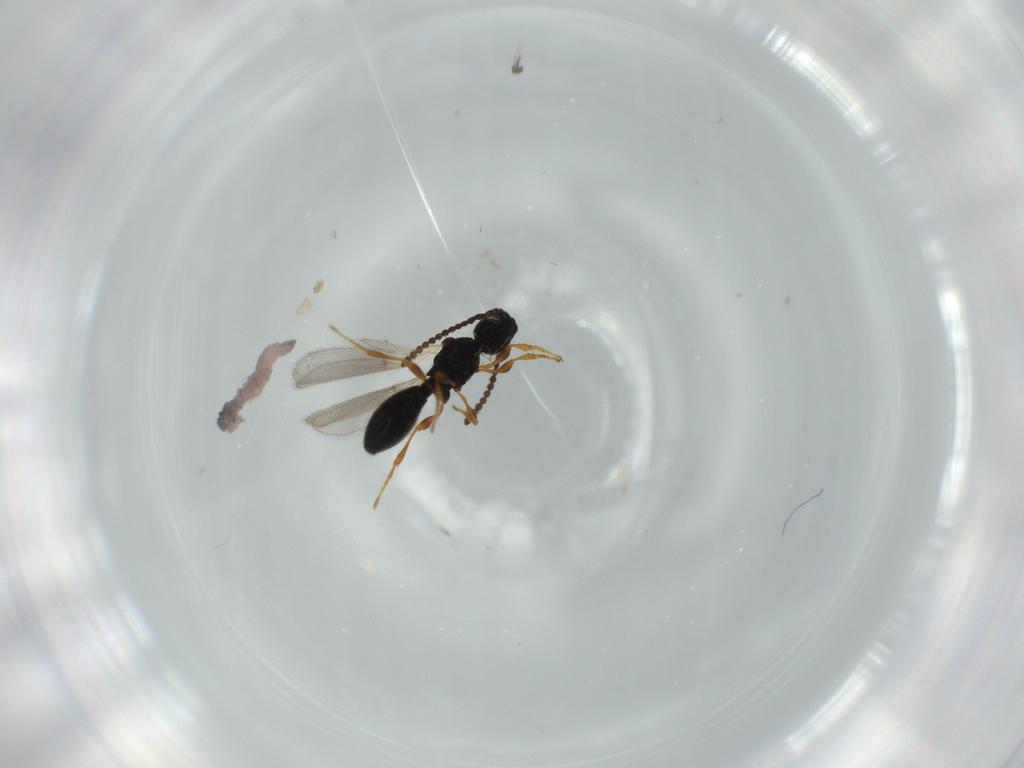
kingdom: Animalia
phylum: Arthropoda
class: Insecta
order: Hymenoptera
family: Diapriidae
